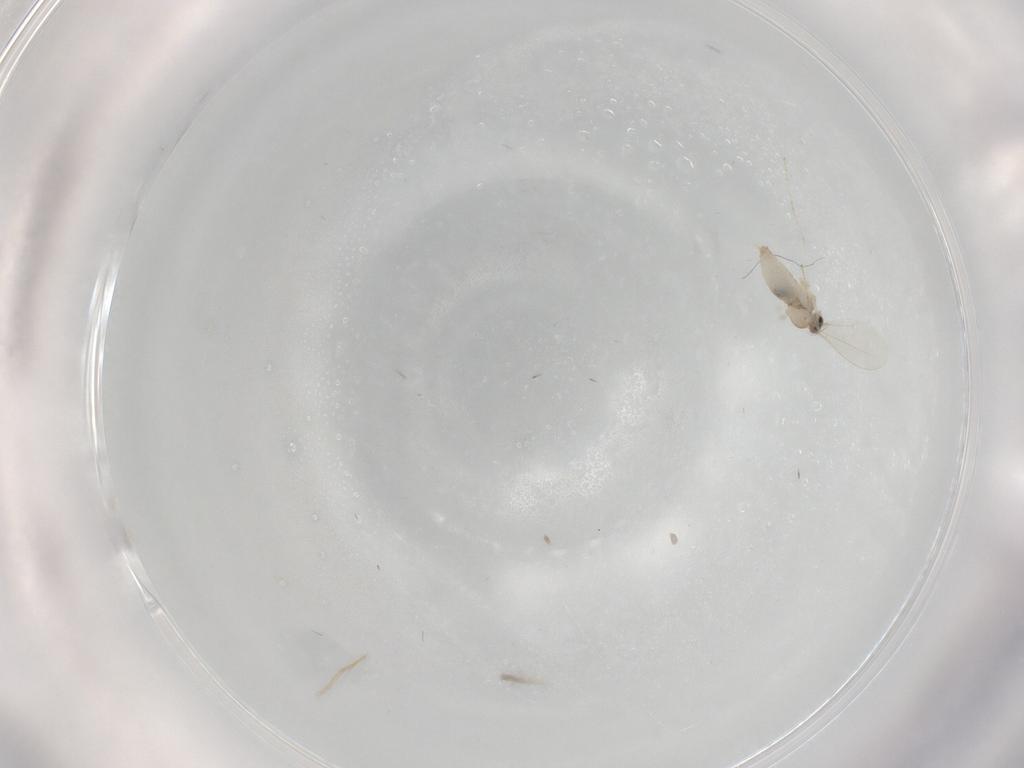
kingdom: Animalia
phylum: Arthropoda
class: Insecta
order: Diptera
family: Cecidomyiidae
